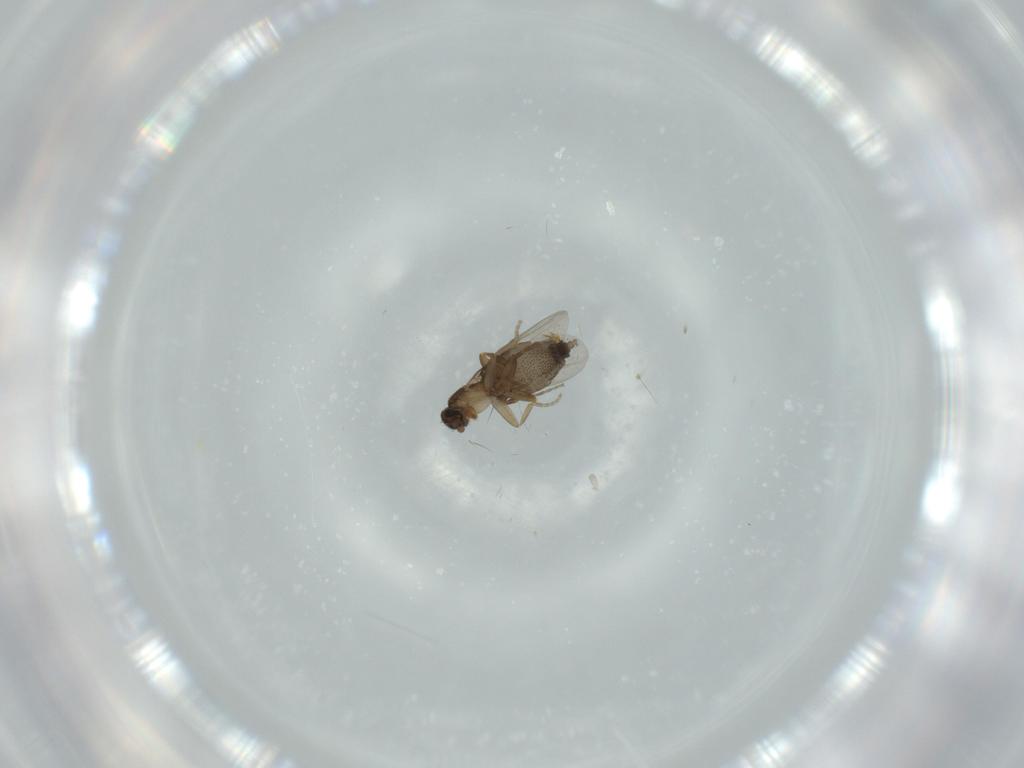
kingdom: Animalia
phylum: Arthropoda
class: Insecta
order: Diptera
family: Phoridae
